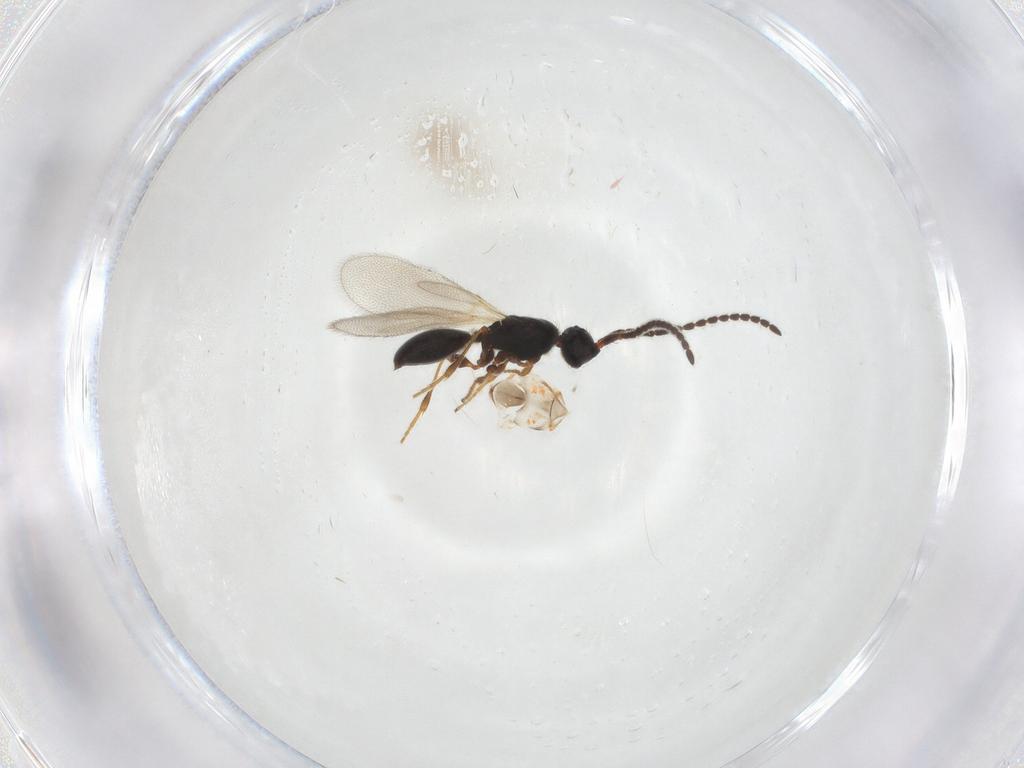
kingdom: Animalia
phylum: Arthropoda
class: Insecta
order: Hymenoptera
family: Diapriidae
